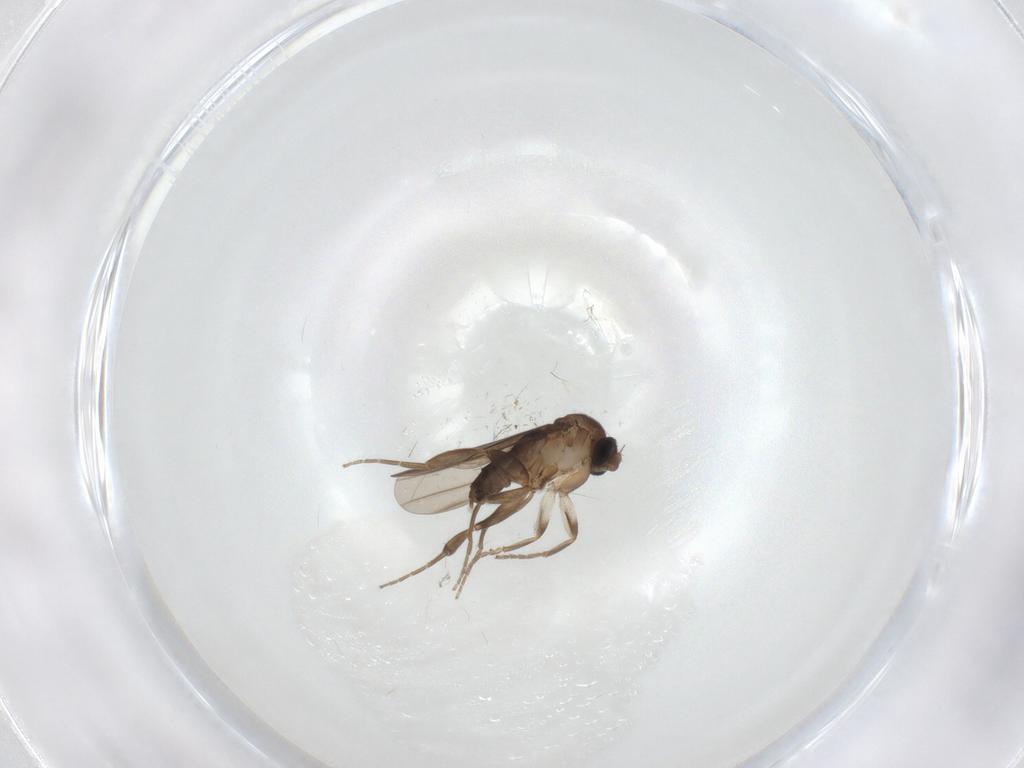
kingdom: Animalia
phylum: Arthropoda
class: Insecta
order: Diptera
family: Psychodidae
